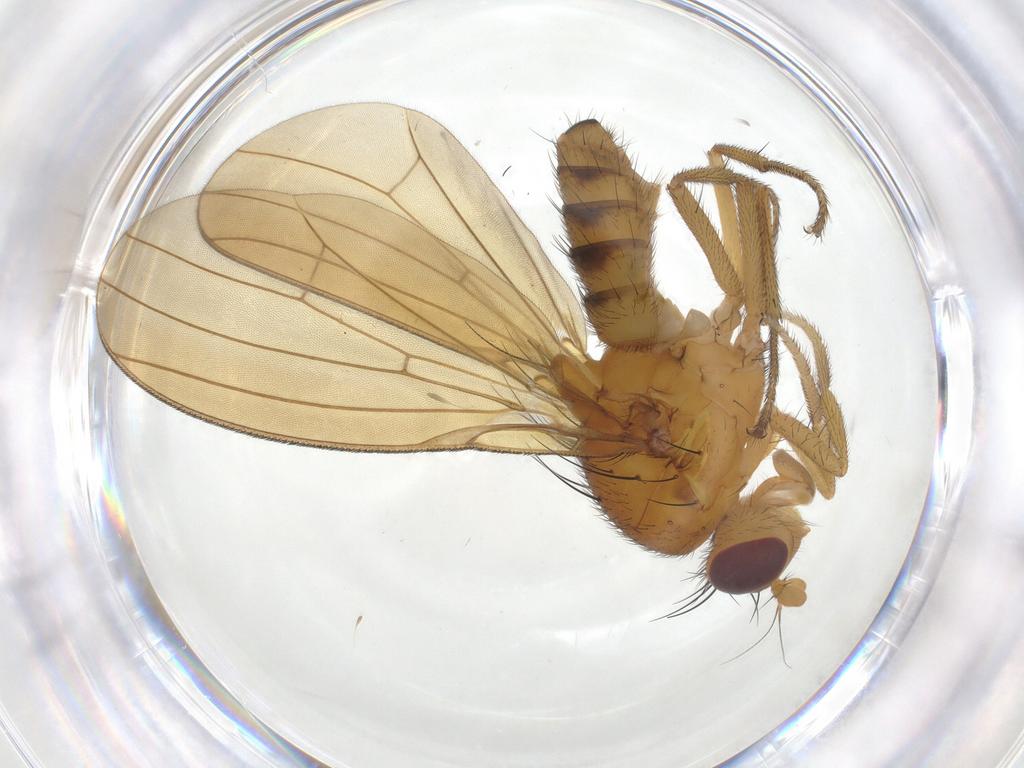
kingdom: Animalia
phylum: Arthropoda
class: Insecta
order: Diptera
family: Chironomidae
